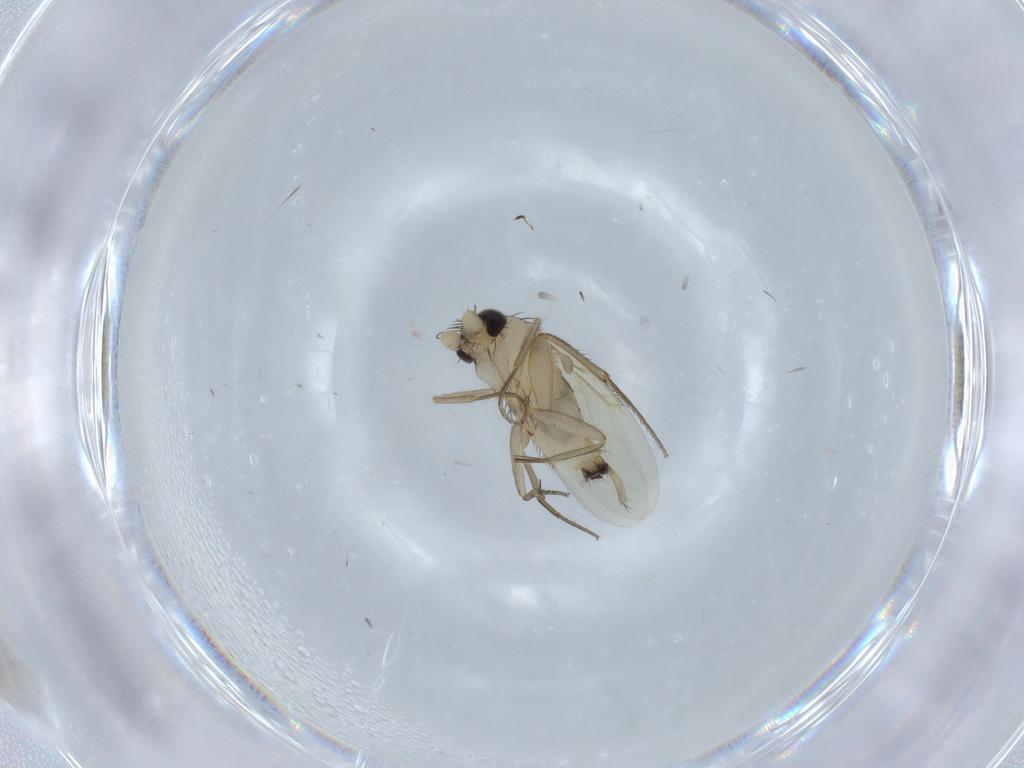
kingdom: Animalia
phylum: Arthropoda
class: Insecta
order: Diptera
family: Phoridae
